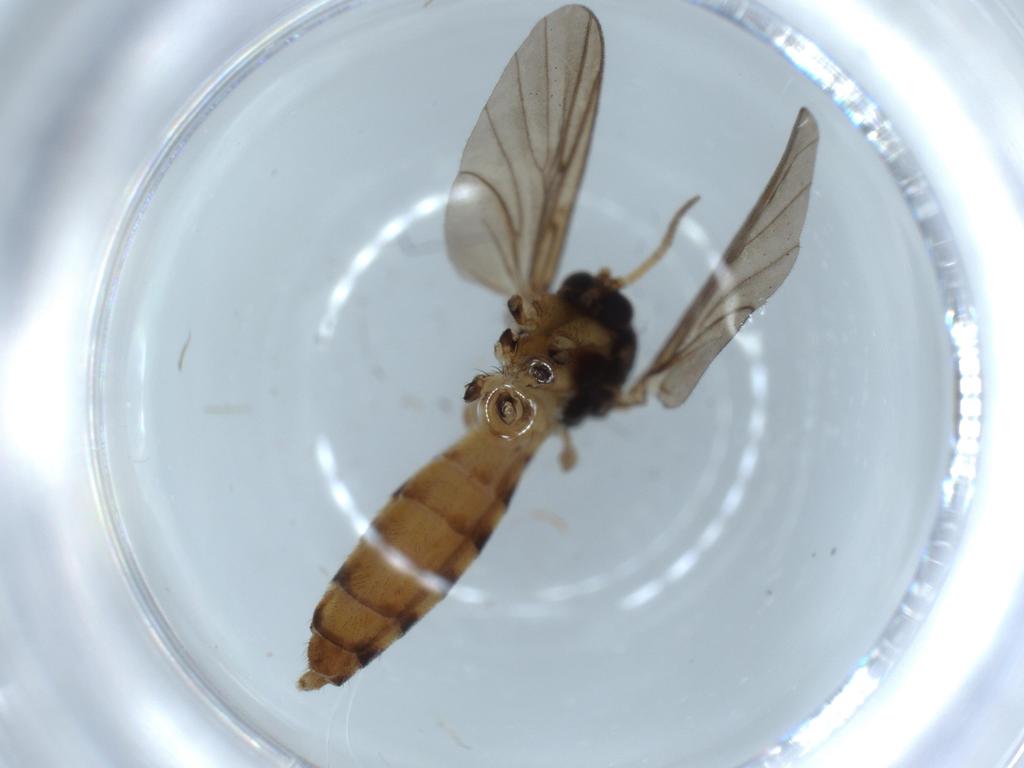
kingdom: Animalia
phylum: Arthropoda
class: Insecta
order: Diptera
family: Mycetophilidae
